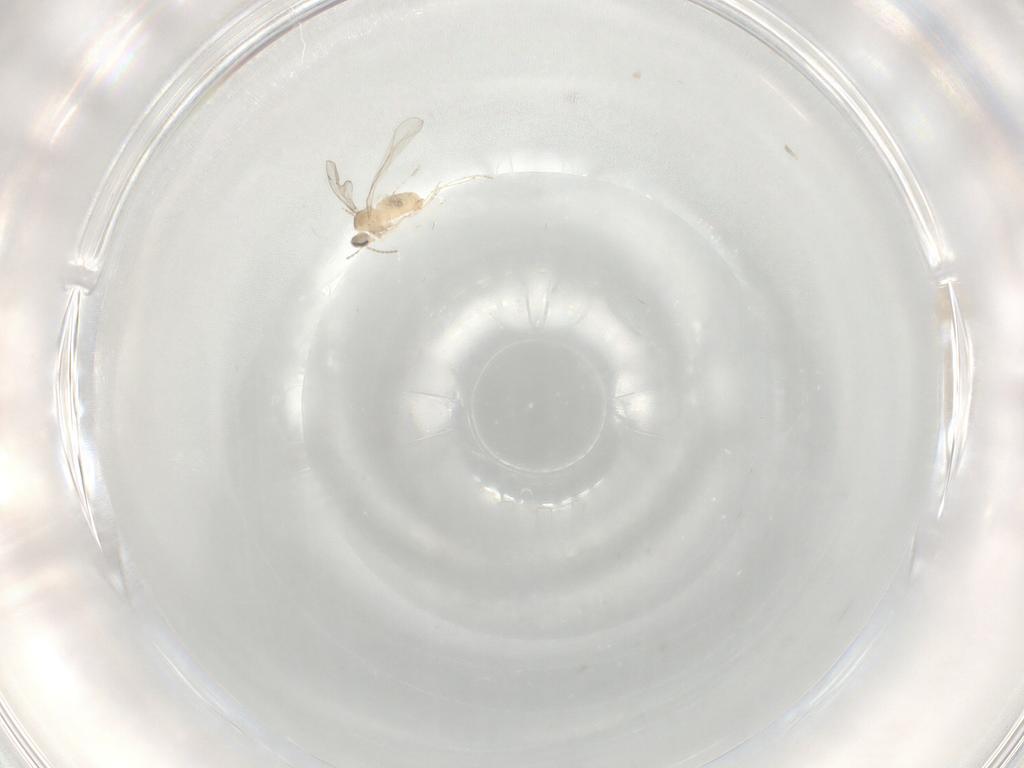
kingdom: Animalia
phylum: Arthropoda
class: Insecta
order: Diptera
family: Cecidomyiidae
